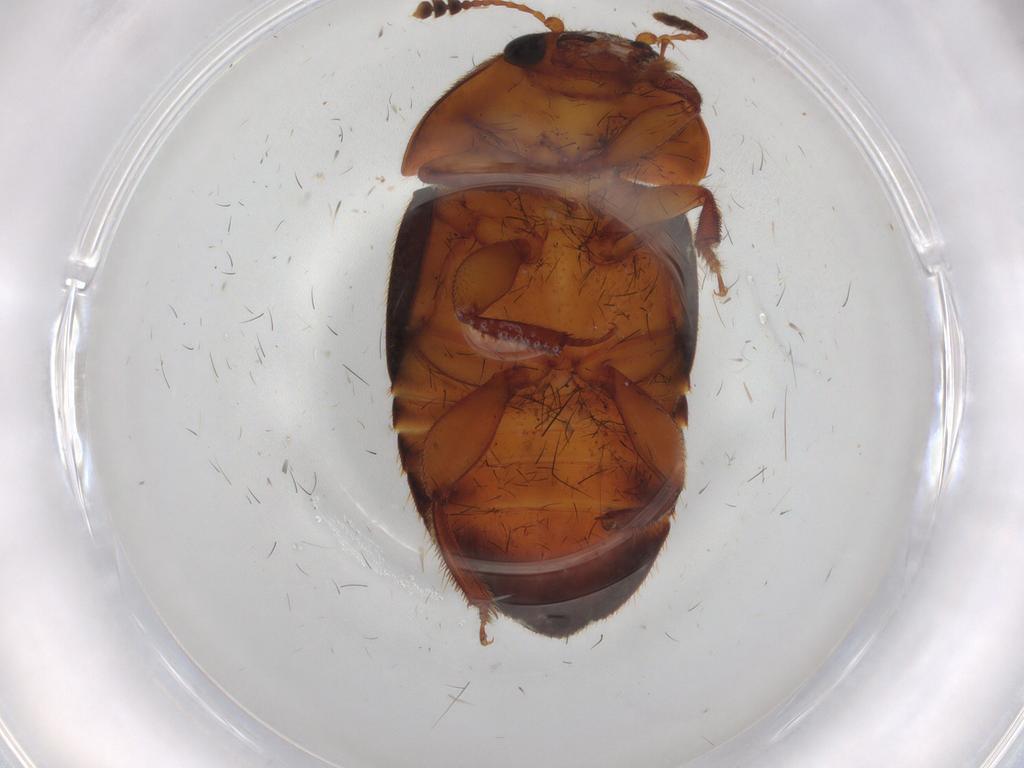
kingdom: Animalia
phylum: Arthropoda
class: Insecta
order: Coleoptera
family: Nitidulidae
